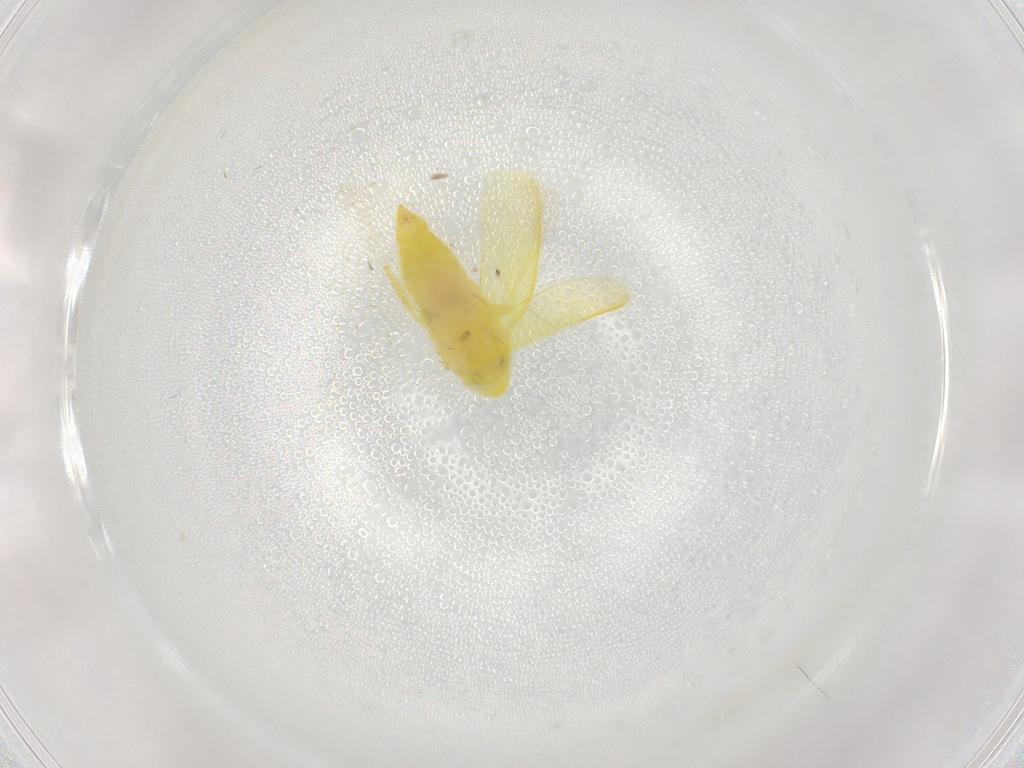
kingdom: Animalia
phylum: Arthropoda
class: Insecta
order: Hemiptera
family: Cicadellidae
